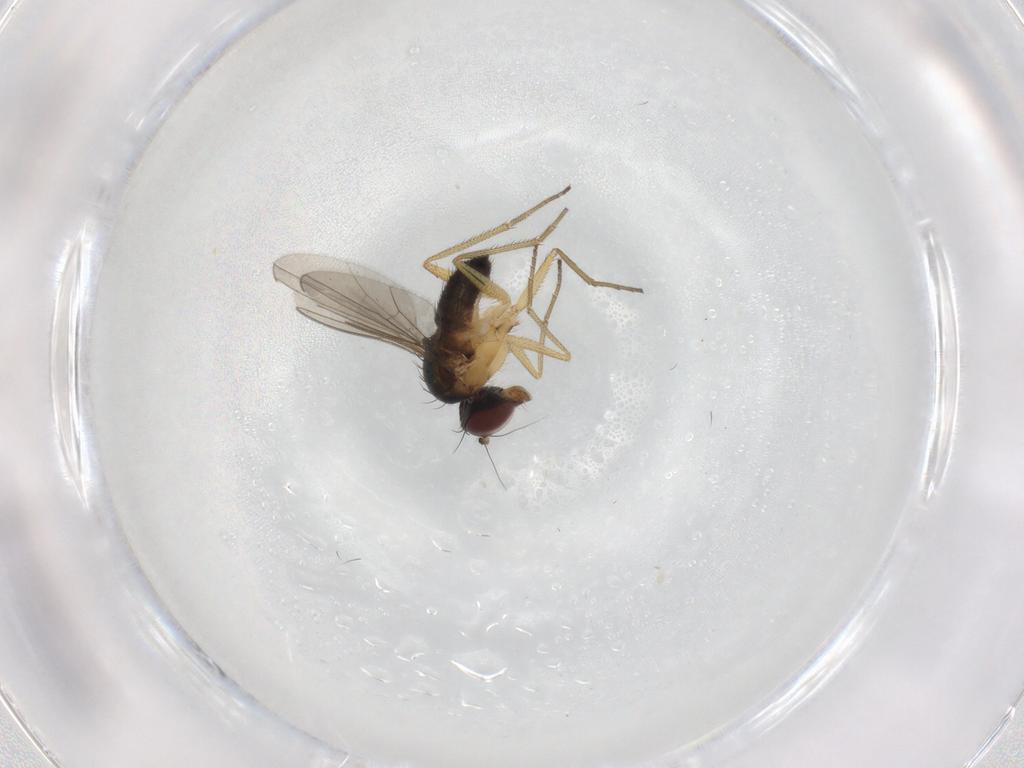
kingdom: Animalia
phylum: Arthropoda
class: Insecta
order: Diptera
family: Dolichopodidae
